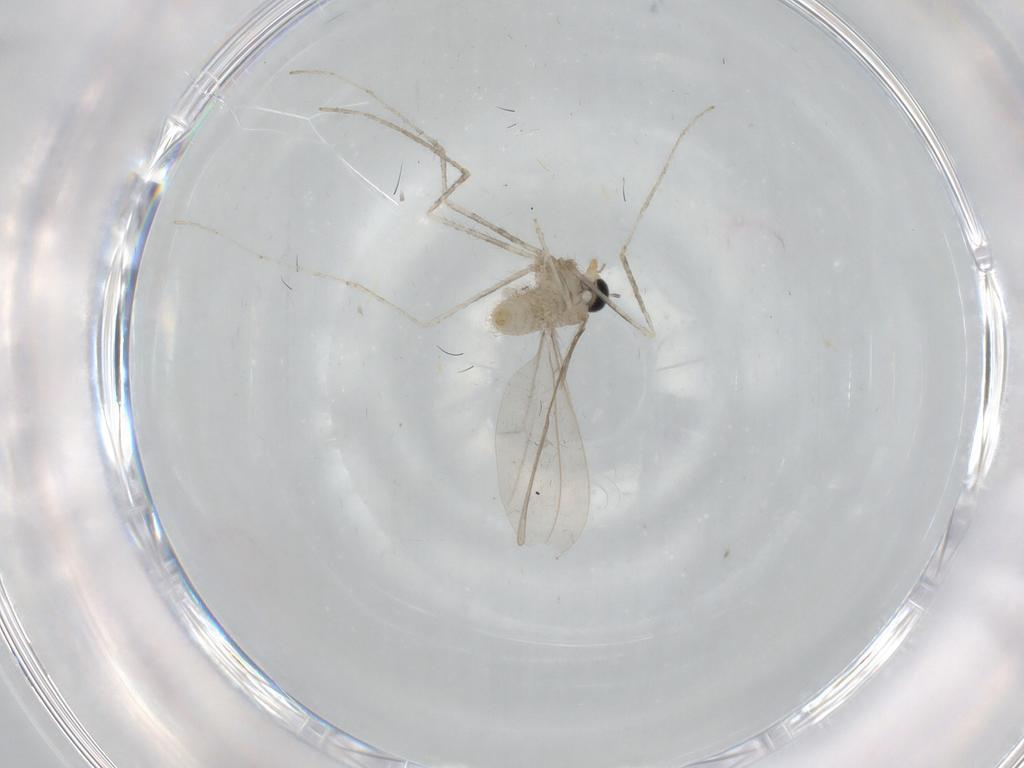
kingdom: Animalia
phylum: Arthropoda
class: Insecta
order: Diptera
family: Cecidomyiidae
